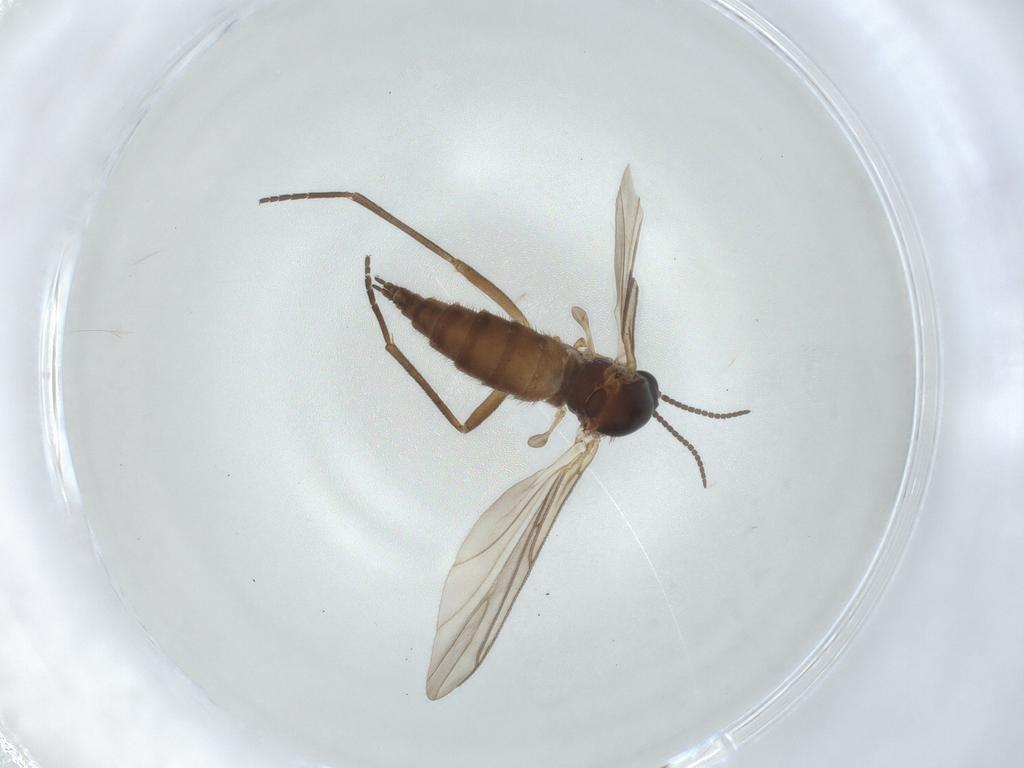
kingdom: Animalia
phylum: Arthropoda
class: Insecta
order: Diptera
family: Sciaridae
